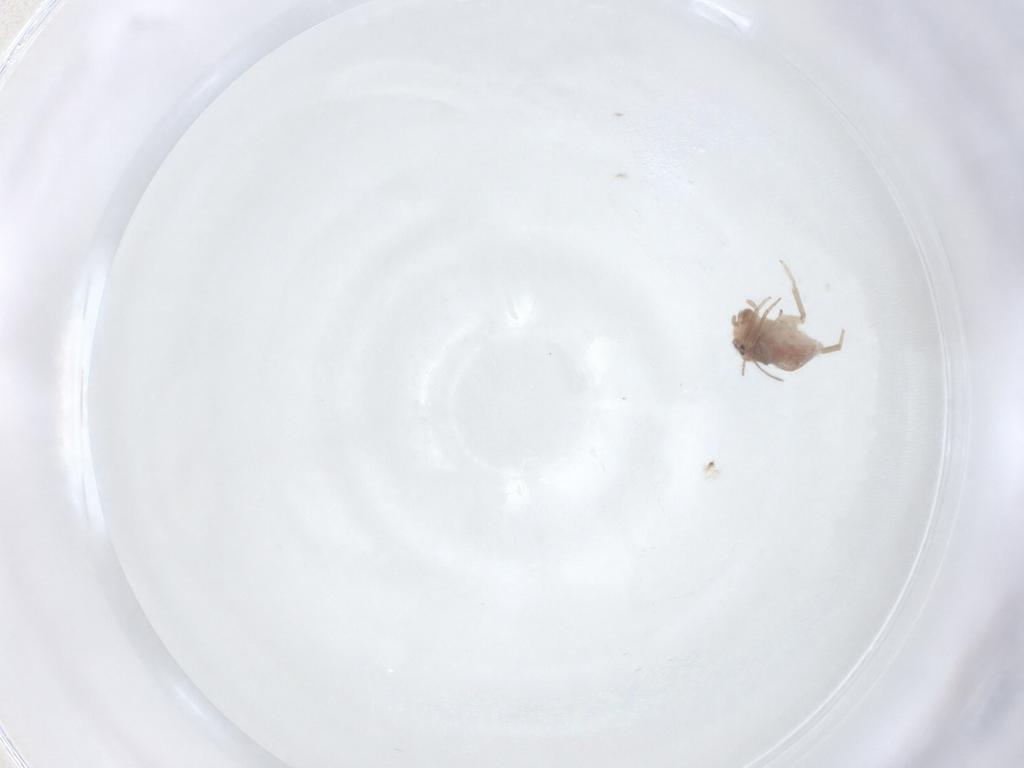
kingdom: Animalia
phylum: Arthropoda
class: Insecta
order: Psocodea
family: Ectopsocidae
